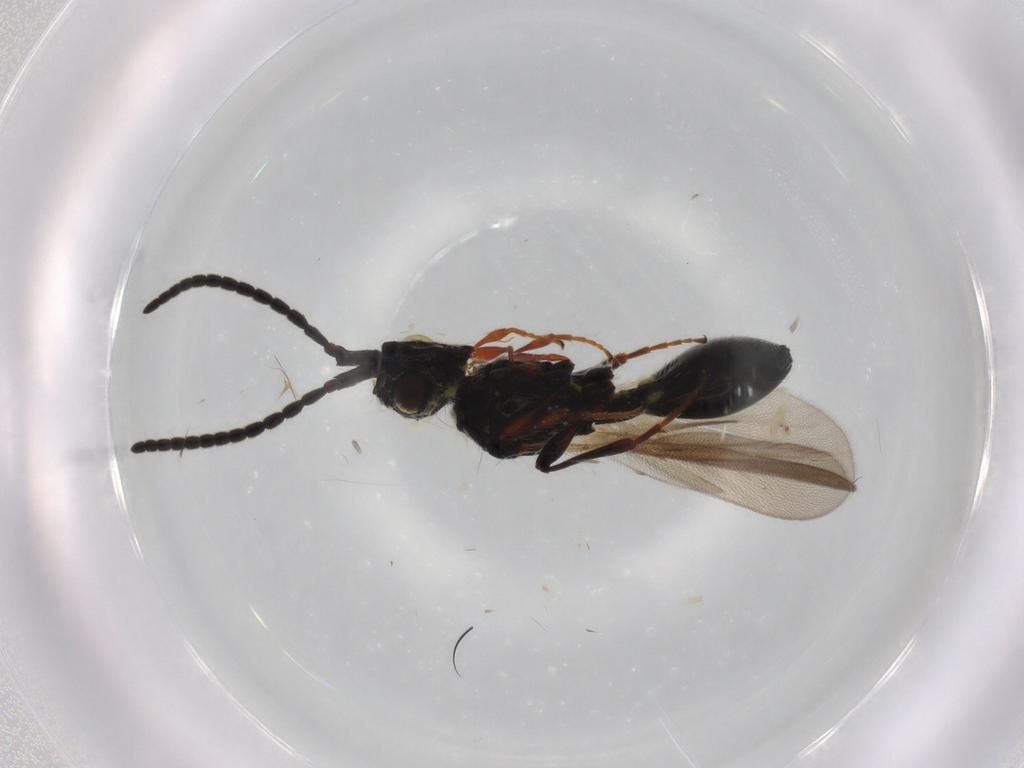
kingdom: Animalia
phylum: Arthropoda
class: Insecta
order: Hymenoptera
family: Diapriidae
